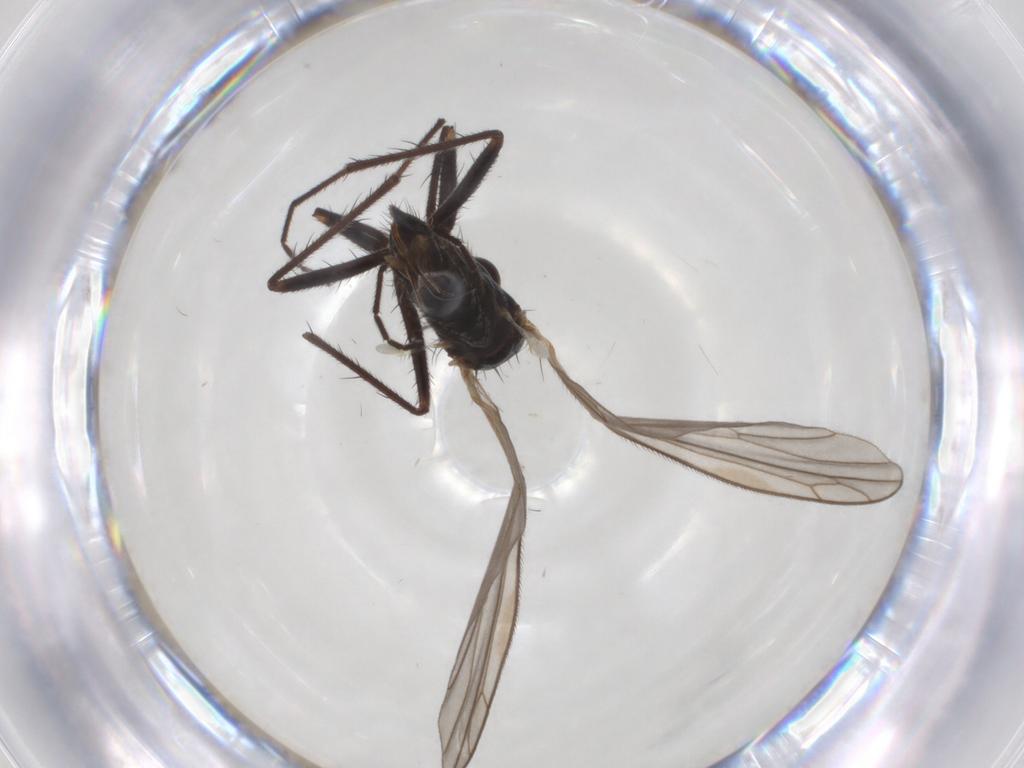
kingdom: Animalia
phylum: Arthropoda
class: Insecta
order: Diptera
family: Empididae
